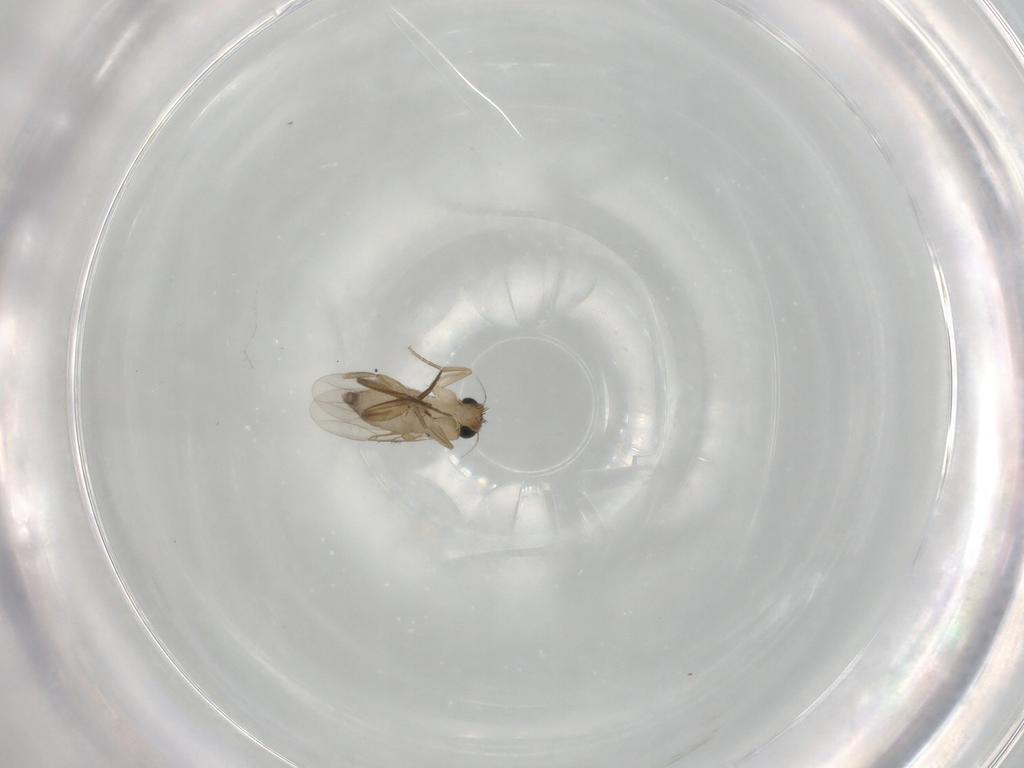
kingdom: Animalia
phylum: Arthropoda
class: Insecta
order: Diptera
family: Phoridae
